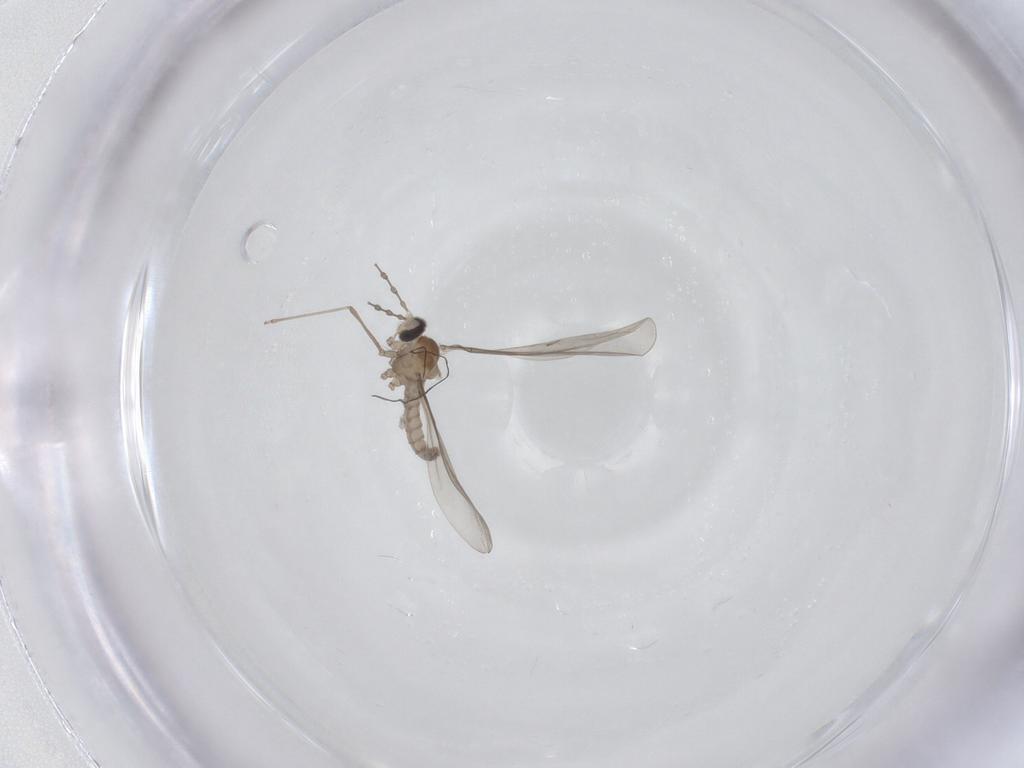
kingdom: Animalia
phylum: Arthropoda
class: Insecta
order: Diptera
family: Cecidomyiidae
